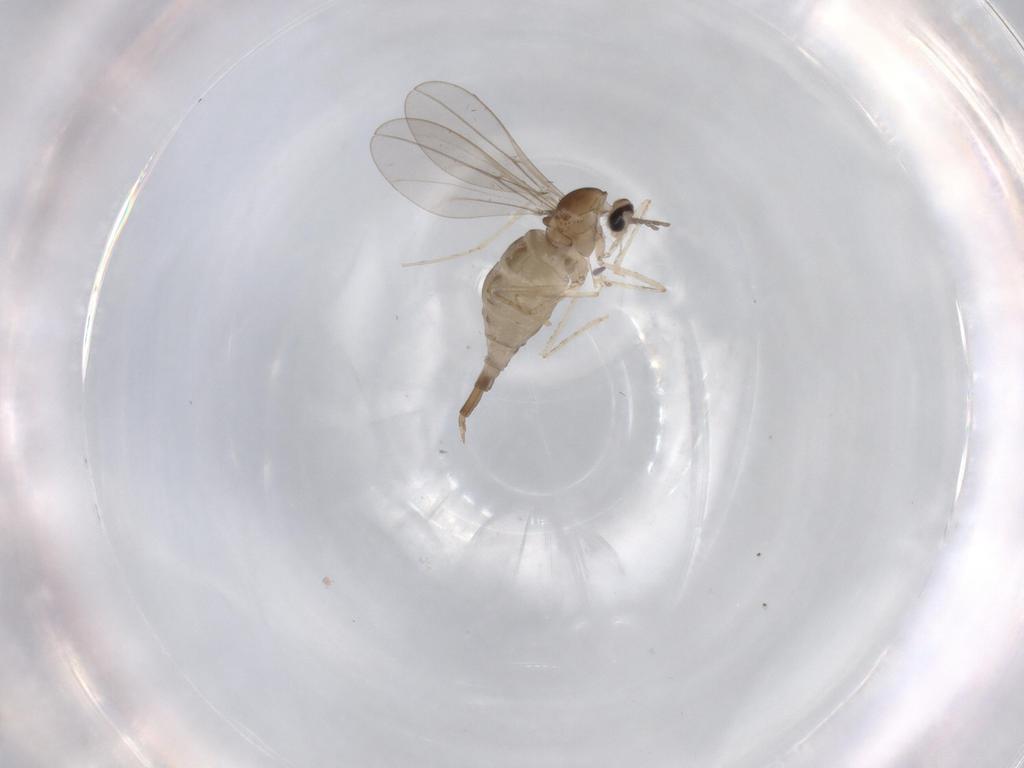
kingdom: Animalia
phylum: Arthropoda
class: Insecta
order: Diptera
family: Cecidomyiidae
